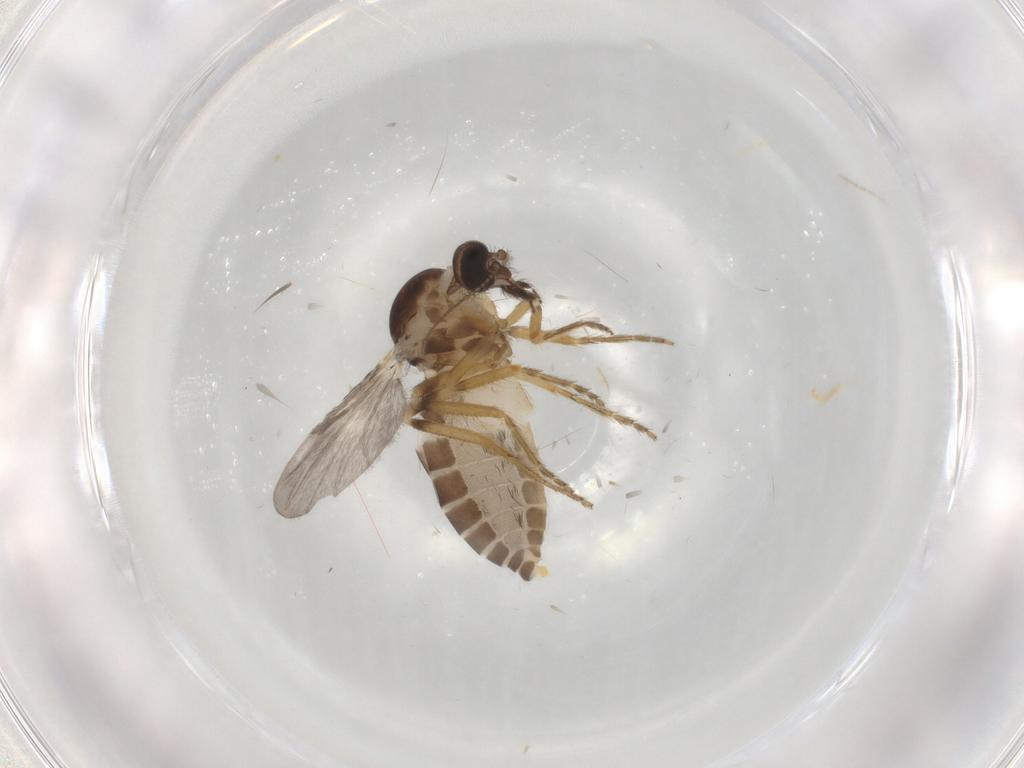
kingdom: Animalia
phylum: Arthropoda
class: Insecta
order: Diptera
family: Ceratopogonidae
